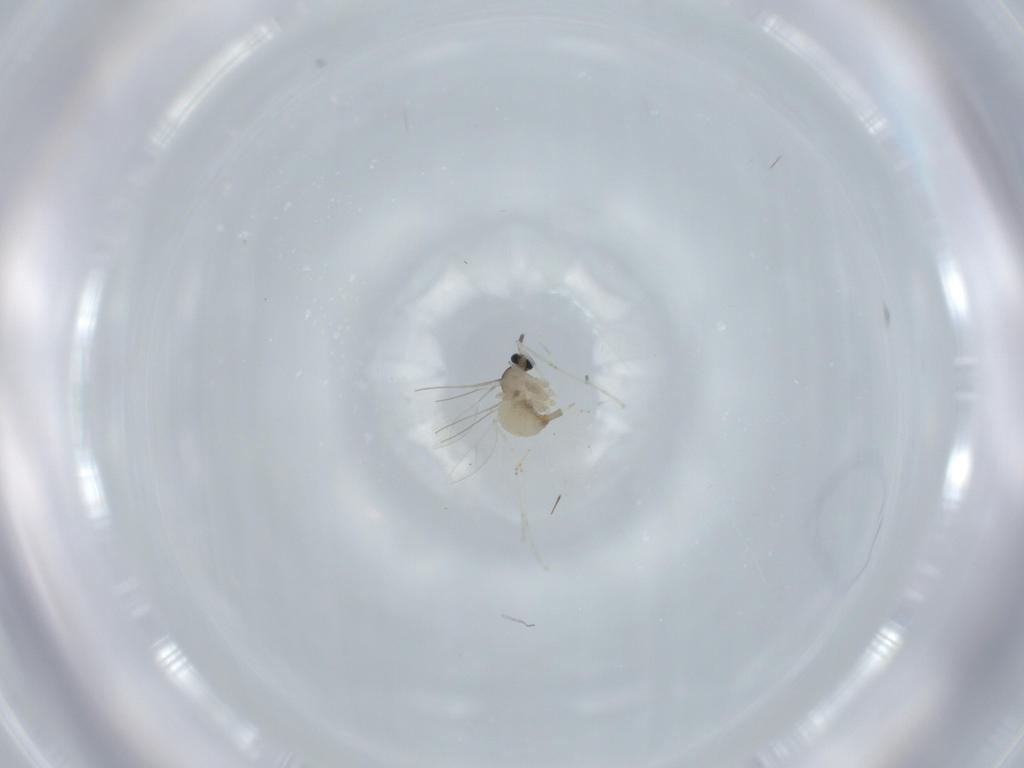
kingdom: Animalia
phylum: Arthropoda
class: Insecta
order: Diptera
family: Cecidomyiidae
